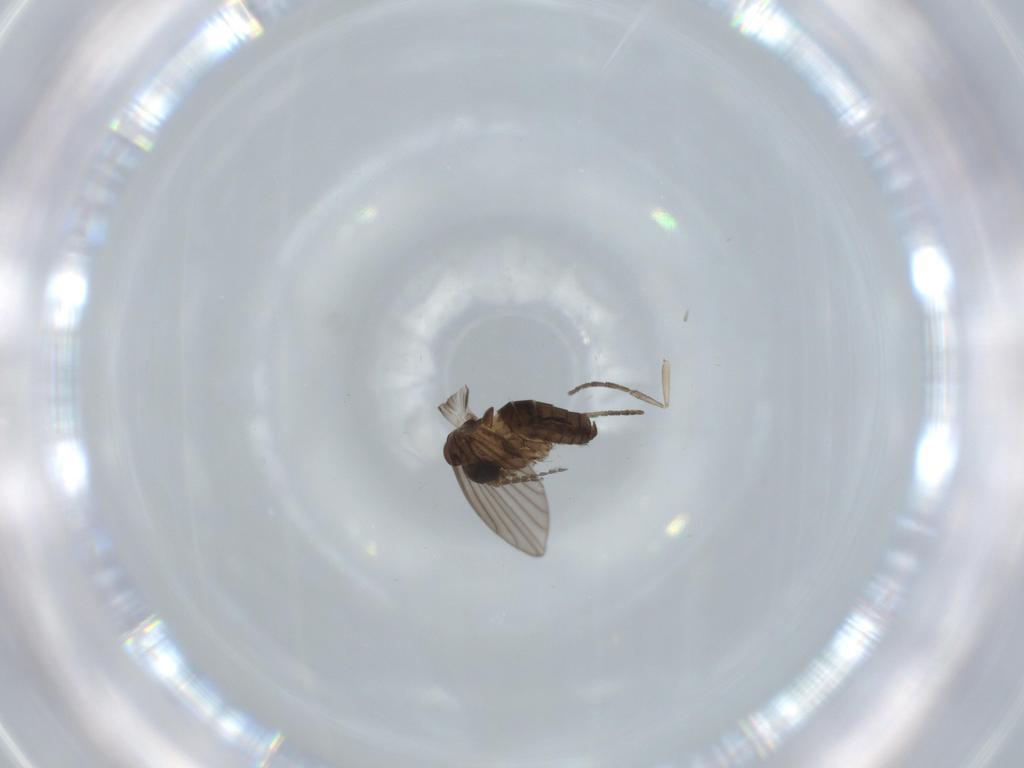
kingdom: Animalia
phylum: Arthropoda
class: Insecta
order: Diptera
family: Psychodidae
